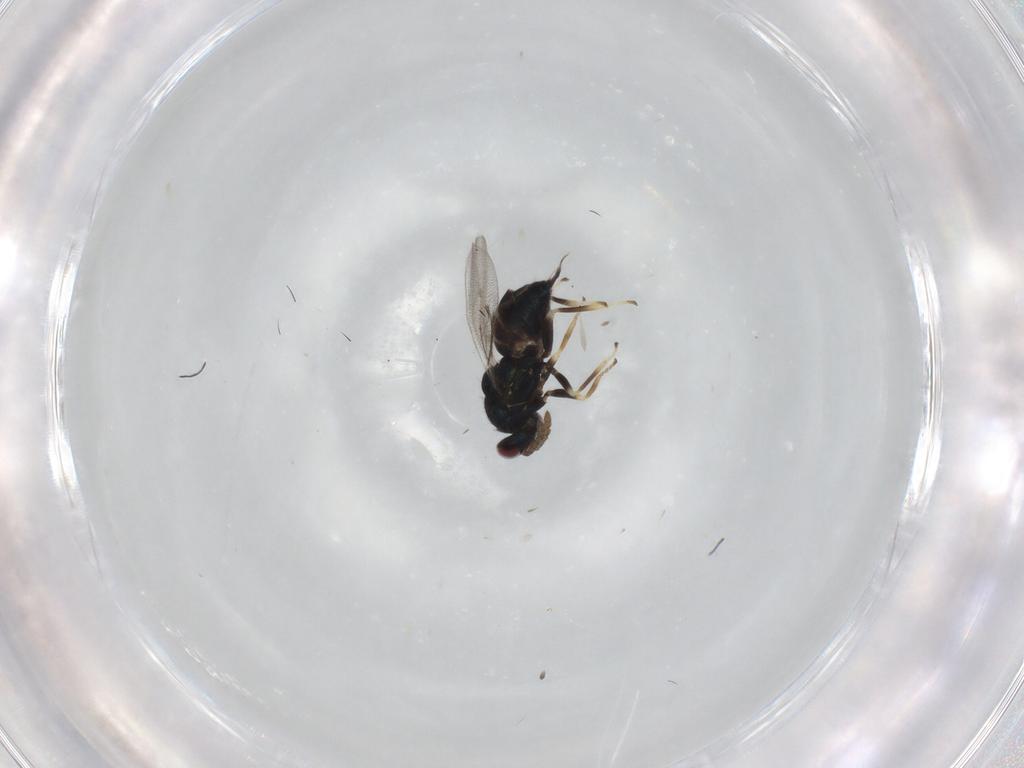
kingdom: Animalia
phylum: Arthropoda
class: Insecta
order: Hymenoptera
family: Eulophidae
